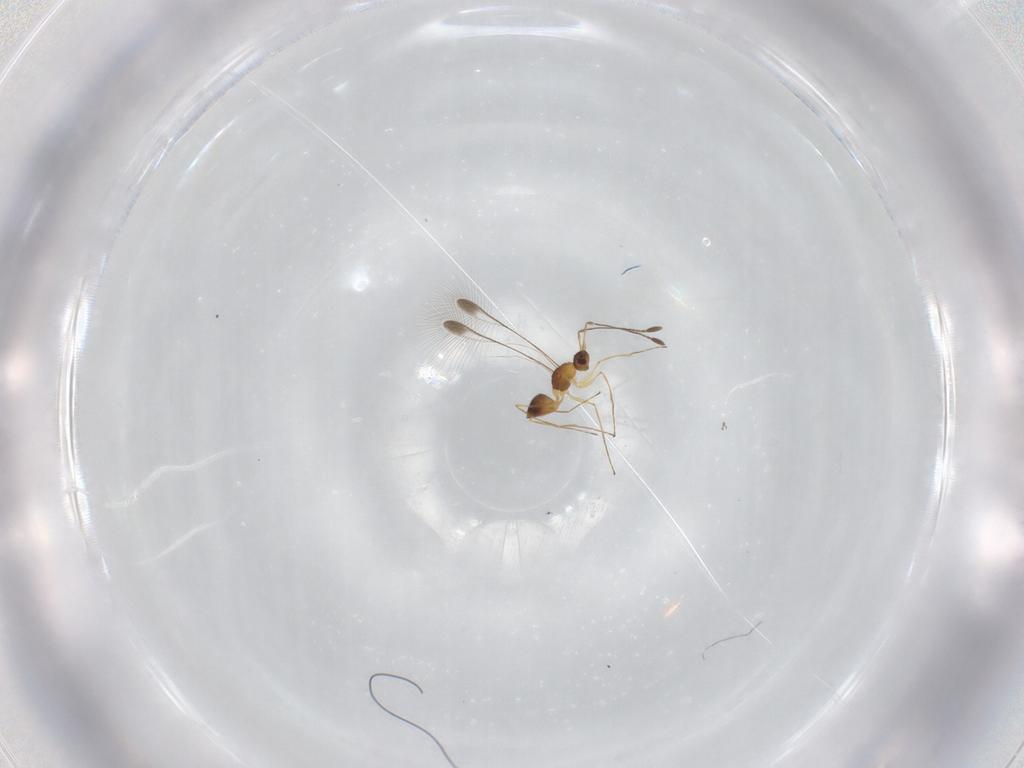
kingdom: Animalia
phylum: Arthropoda
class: Insecta
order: Hymenoptera
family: Mymaridae
